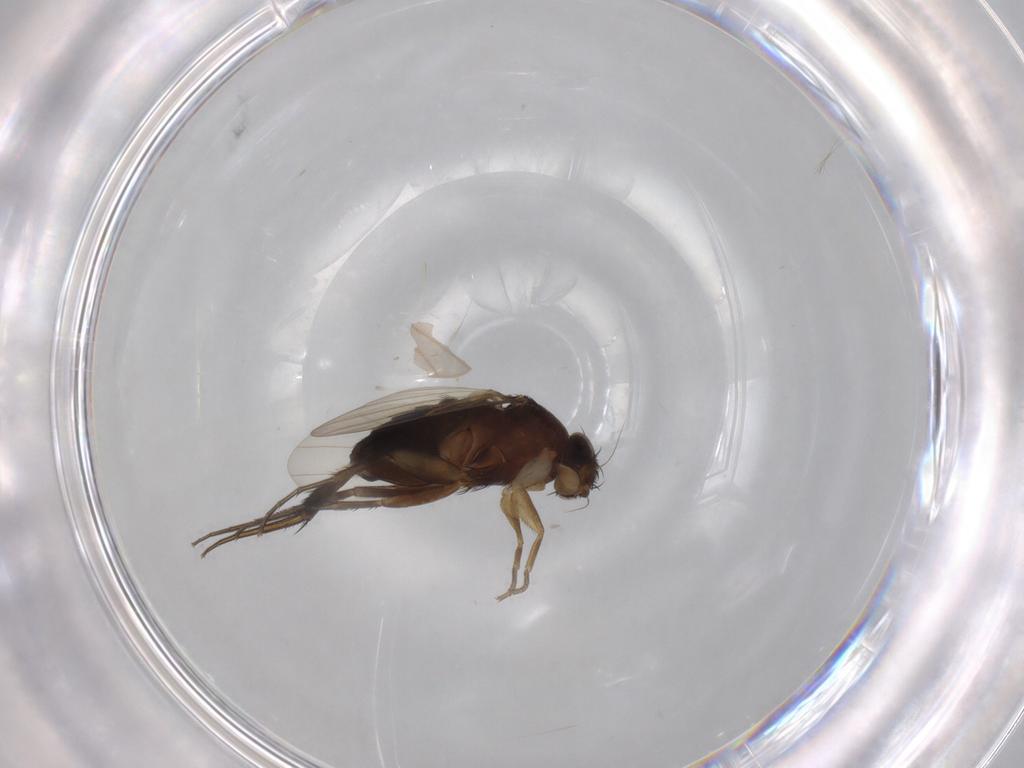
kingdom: Animalia
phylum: Arthropoda
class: Insecta
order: Diptera
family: Phoridae
